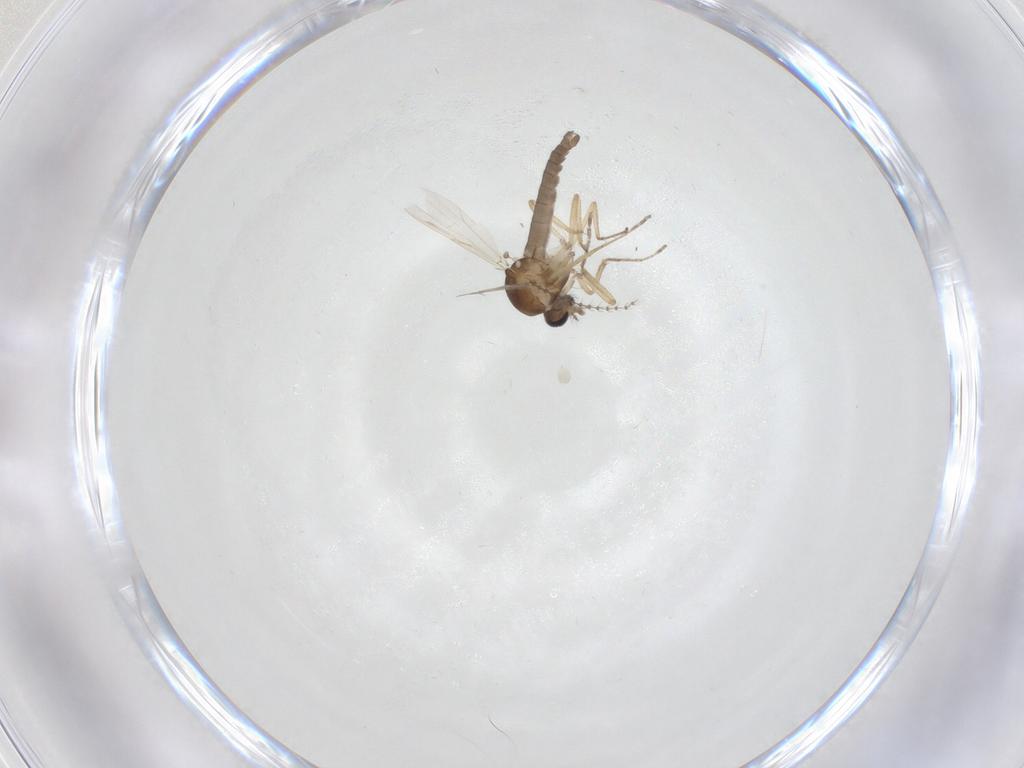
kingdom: Animalia
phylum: Arthropoda
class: Insecta
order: Diptera
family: Ceratopogonidae
